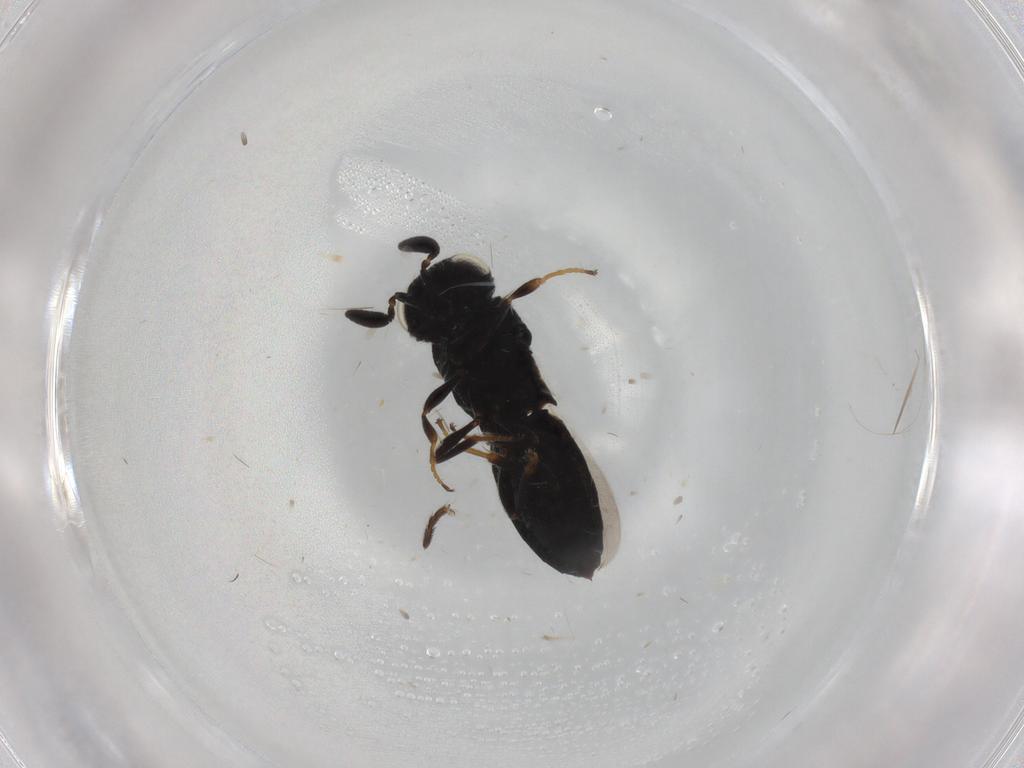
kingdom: Animalia
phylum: Arthropoda
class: Insecta
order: Hymenoptera
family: Scelionidae
